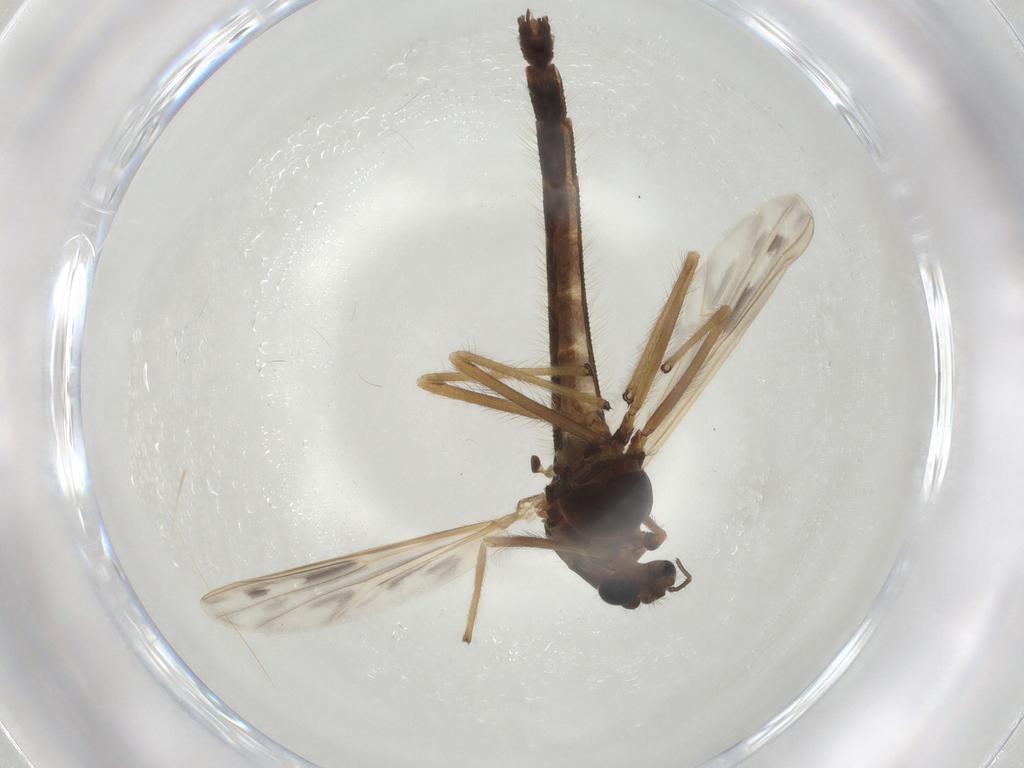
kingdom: Animalia
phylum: Arthropoda
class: Insecta
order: Diptera
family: Chironomidae
